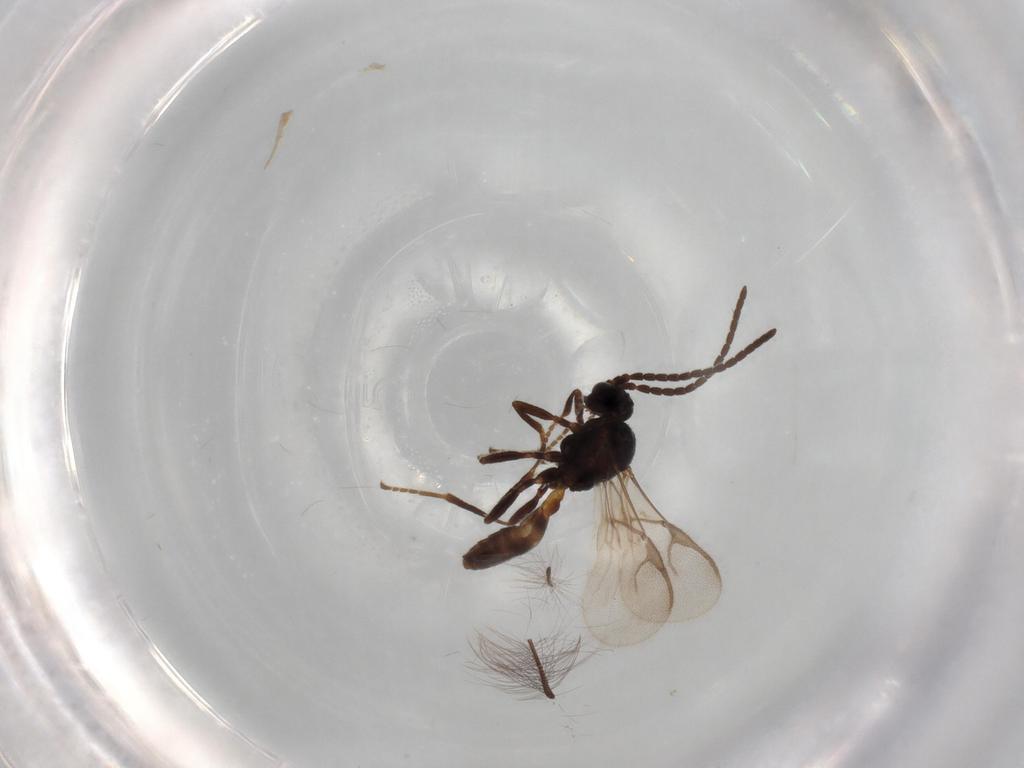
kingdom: Animalia
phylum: Arthropoda
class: Insecta
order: Hymenoptera
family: Braconidae
